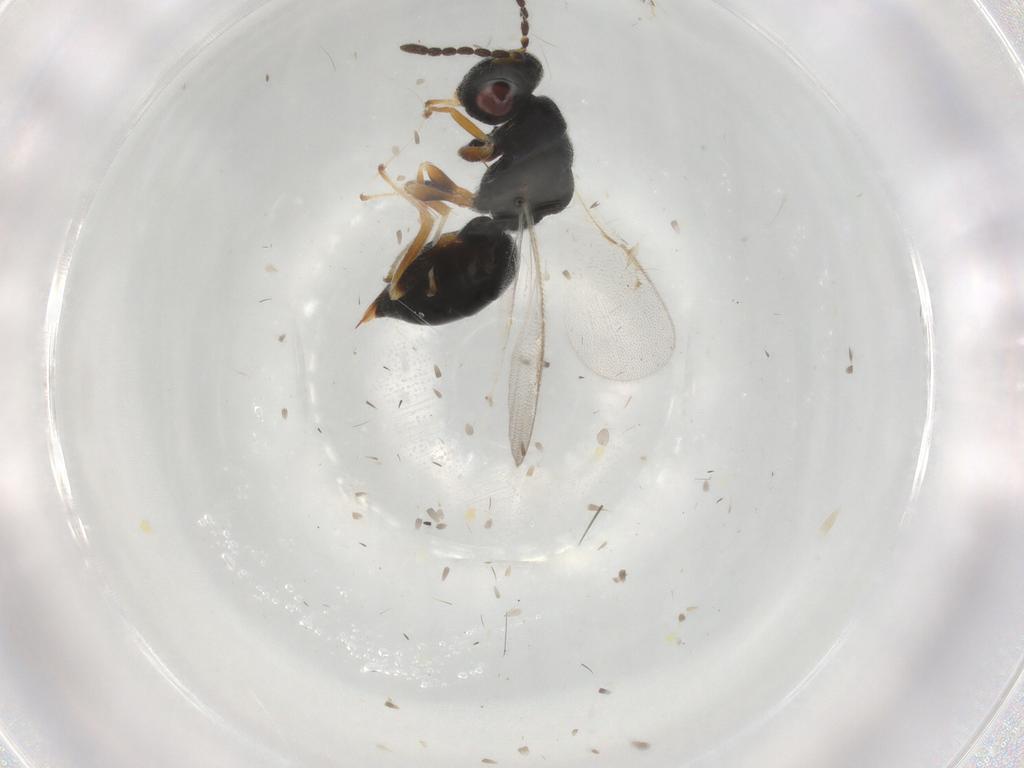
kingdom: Animalia
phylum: Arthropoda
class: Insecta
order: Hymenoptera
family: Eurytomidae
